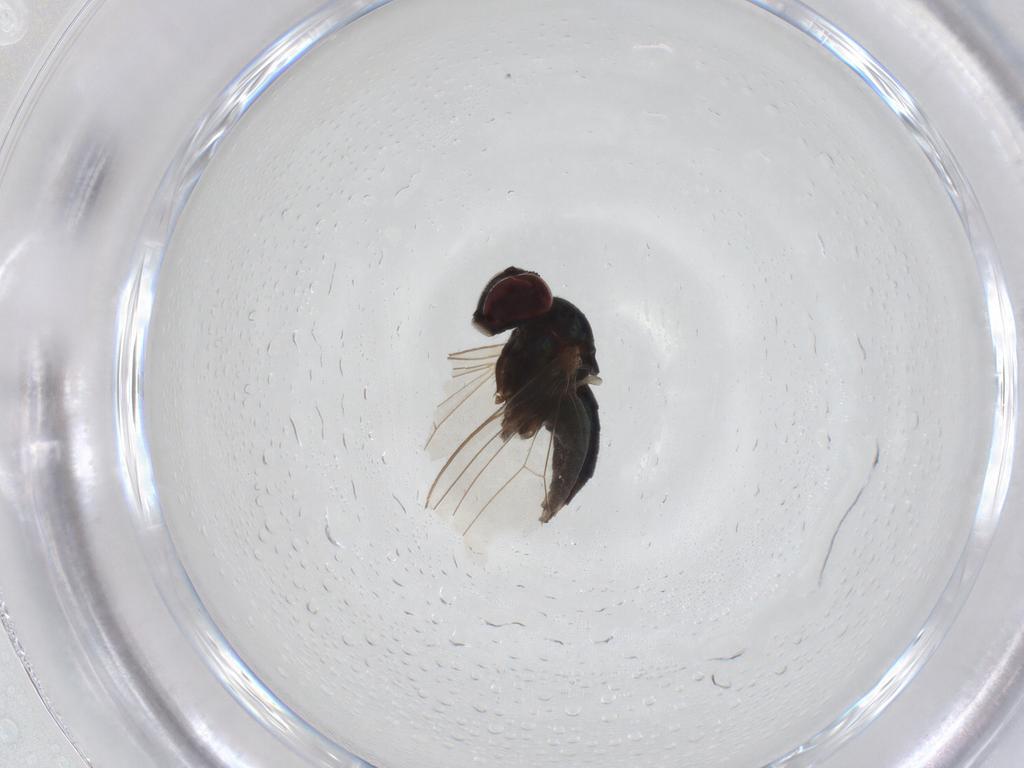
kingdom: Animalia
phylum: Arthropoda
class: Insecta
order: Diptera
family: Dolichopodidae
